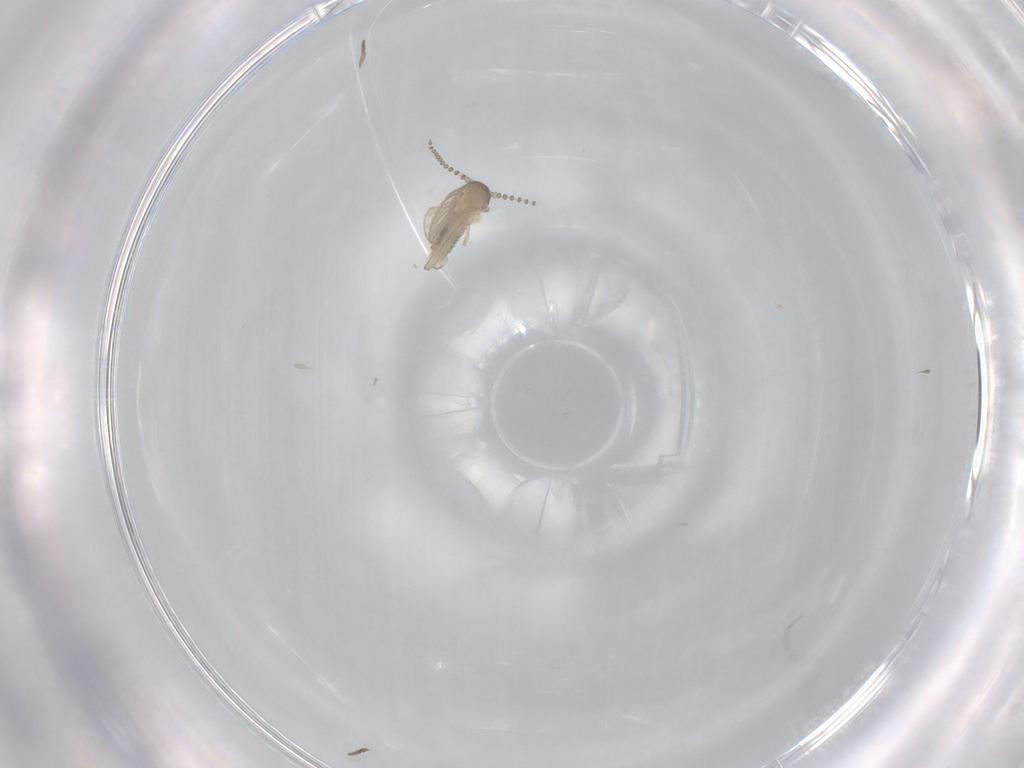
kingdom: Animalia
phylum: Arthropoda
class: Insecta
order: Diptera
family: Psychodidae
